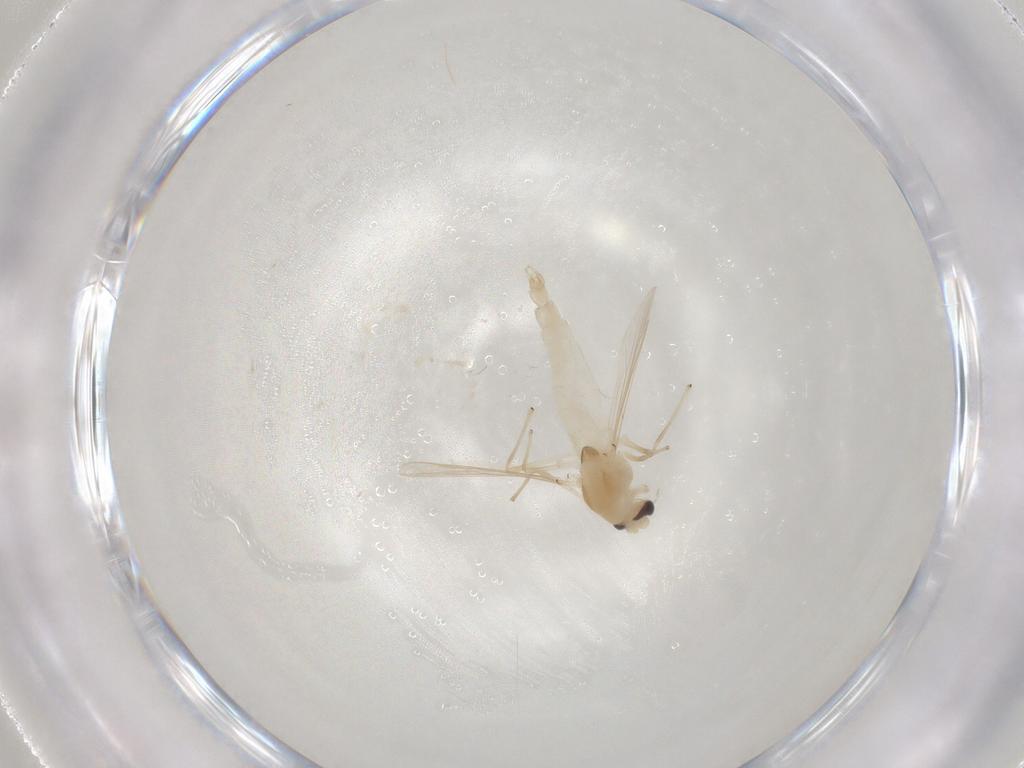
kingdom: Animalia
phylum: Arthropoda
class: Insecta
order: Diptera
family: Chironomidae
